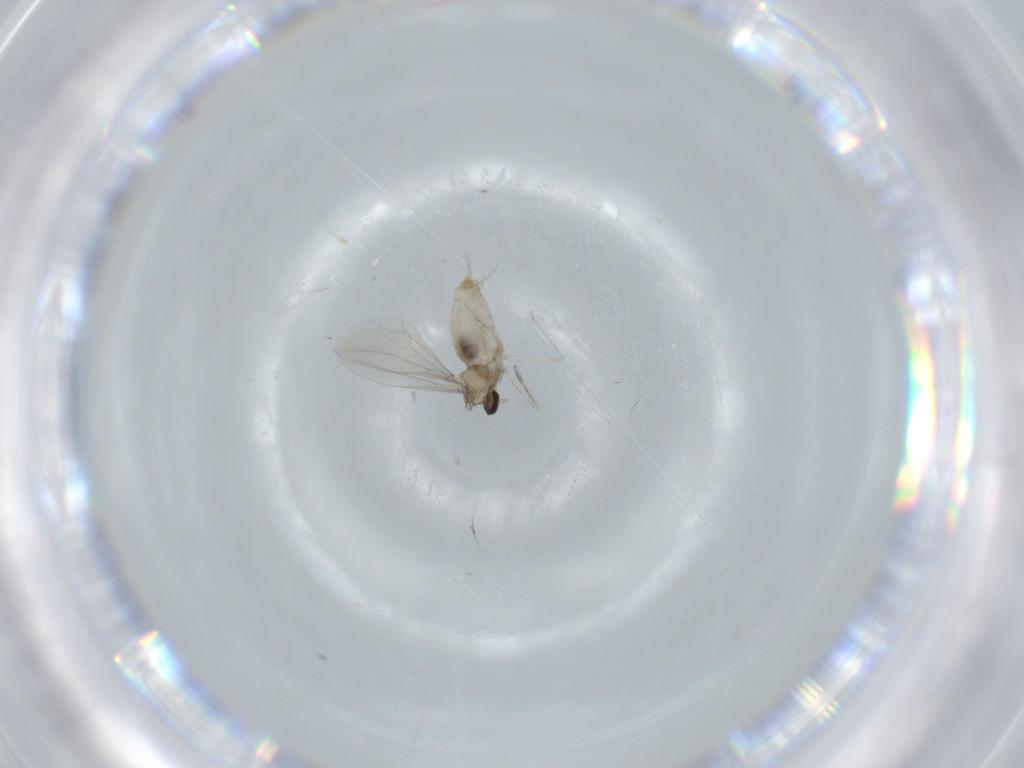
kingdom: Animalia
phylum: Arthropoda
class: Insecta
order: Diptera
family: Cecidomyiidae
